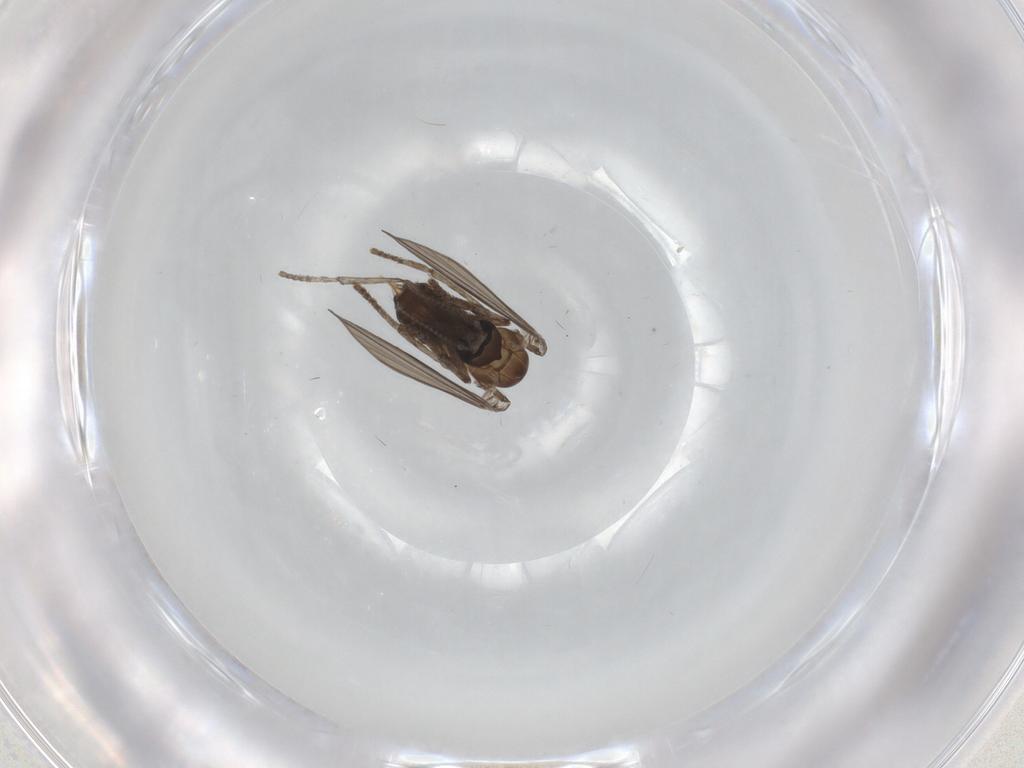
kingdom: Animalia
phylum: Arthropoda
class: Insecta
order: Diptera
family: Psychodidae
